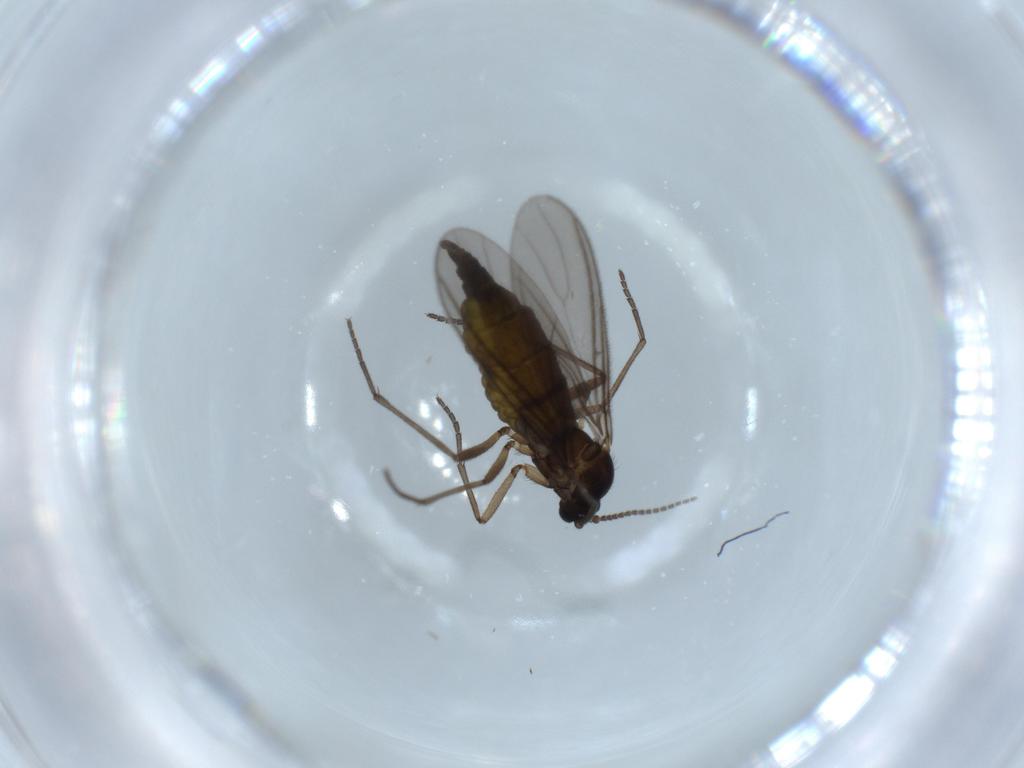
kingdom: Animalia
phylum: Arthropoda
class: Insecta
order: Diptera
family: Sciaridae
